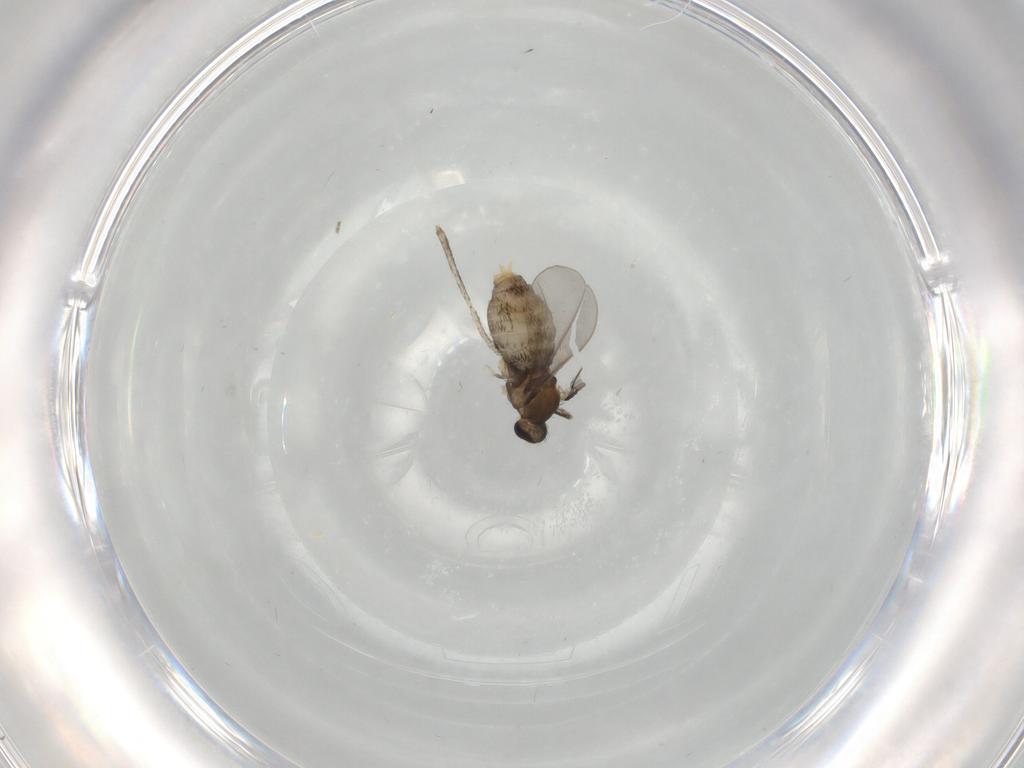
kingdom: Animalia
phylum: Arthropoda
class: Insecta
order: Diptera
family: Cecidomyiidae
